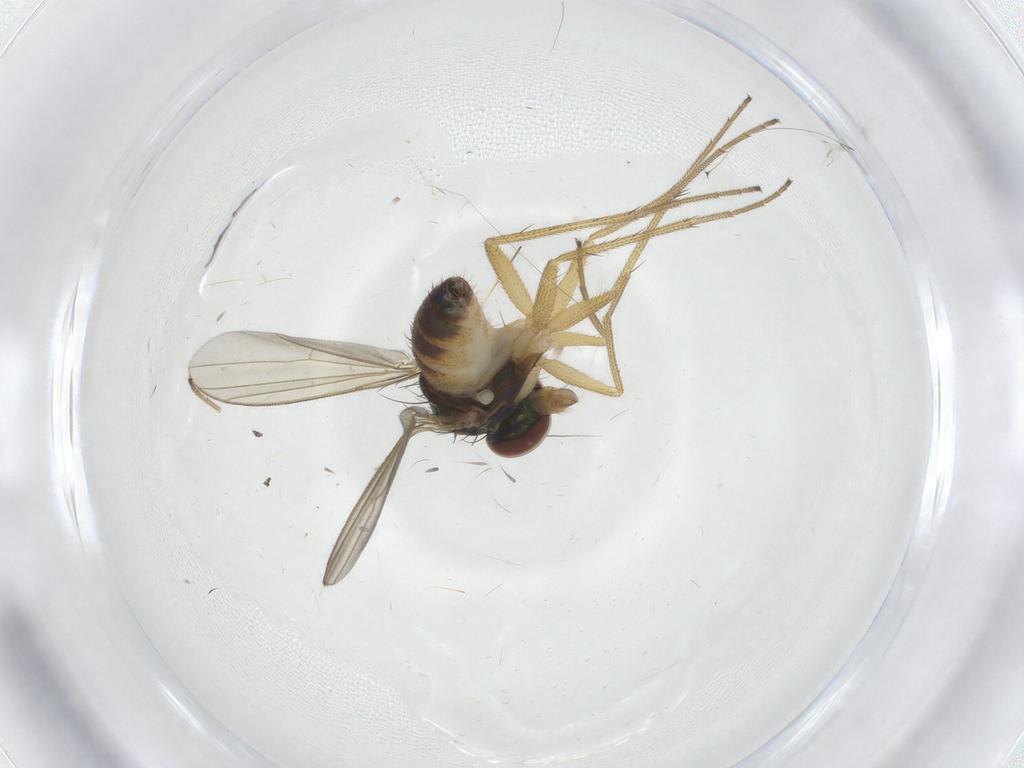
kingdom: Animalia
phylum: Arthropoda
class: Insecta
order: Diptera
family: Dolichopodidae
